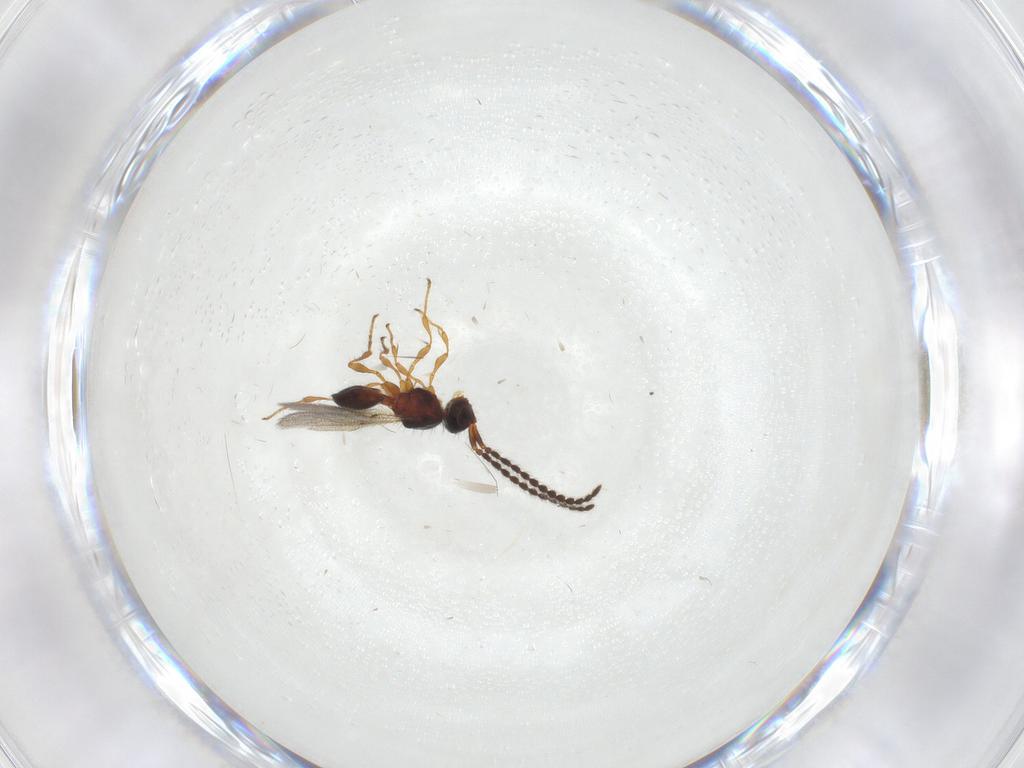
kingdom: Animalia
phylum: Arthropoda
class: Insecta
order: Hymenoptera
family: Diapriidae
